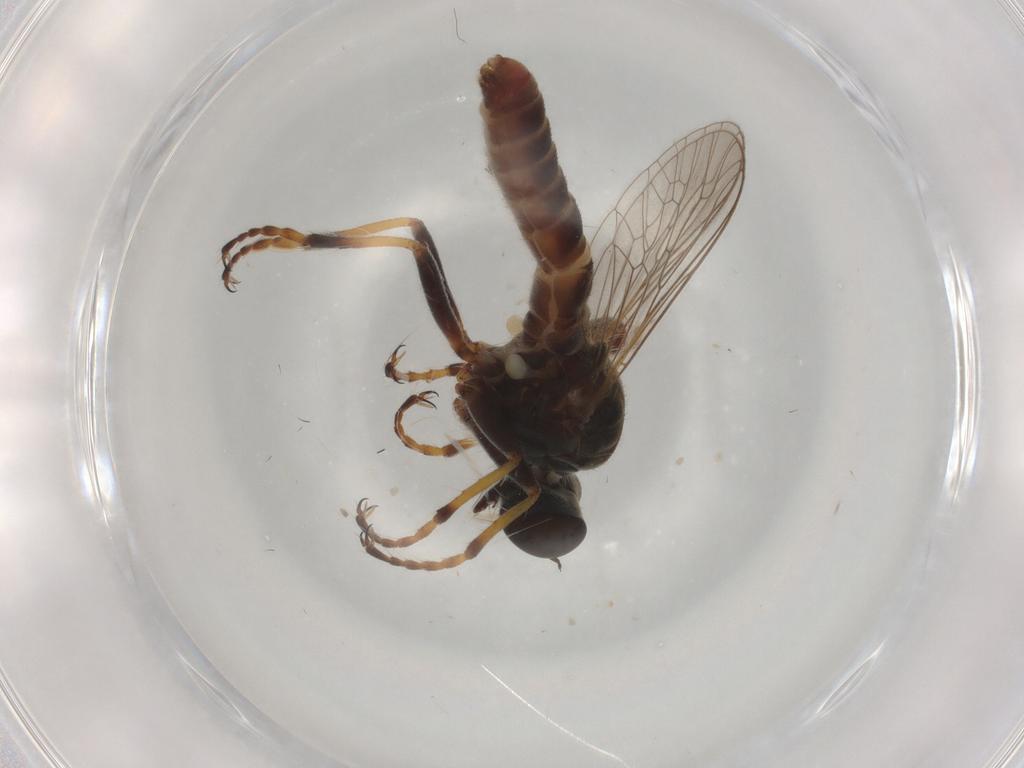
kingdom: Animalia
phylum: Arthropoda
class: Insecta
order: Diptera
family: Asilidae
